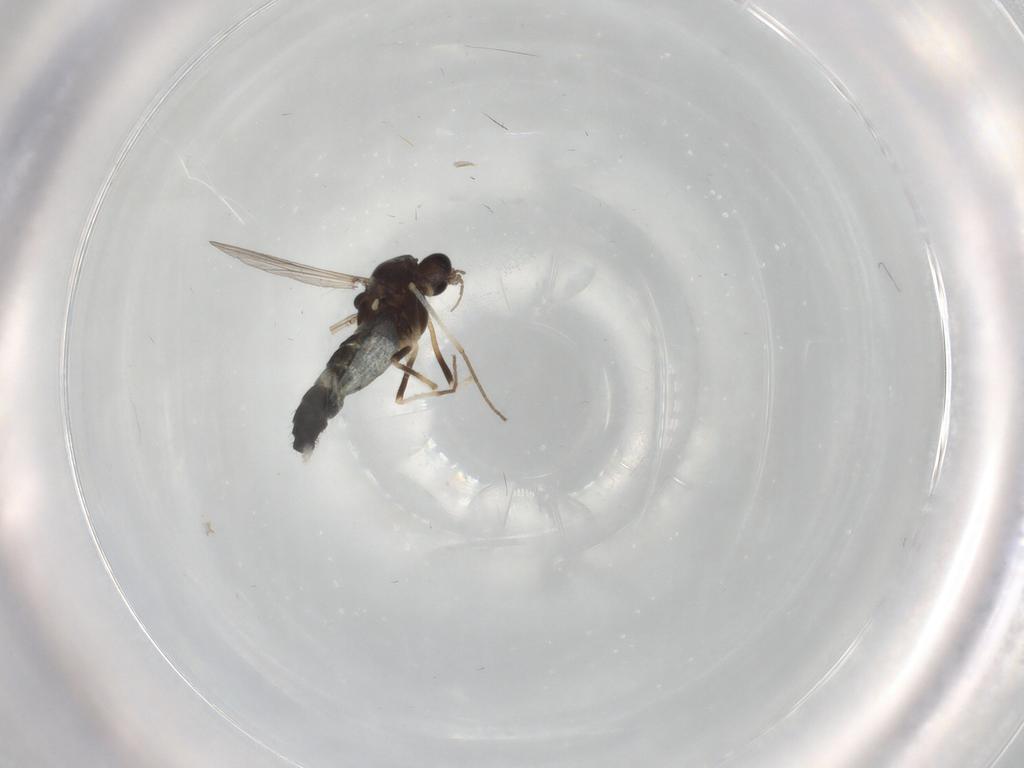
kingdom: Animalia
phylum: Arthropoda
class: Insecta
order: Diptera
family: Chironomidae
